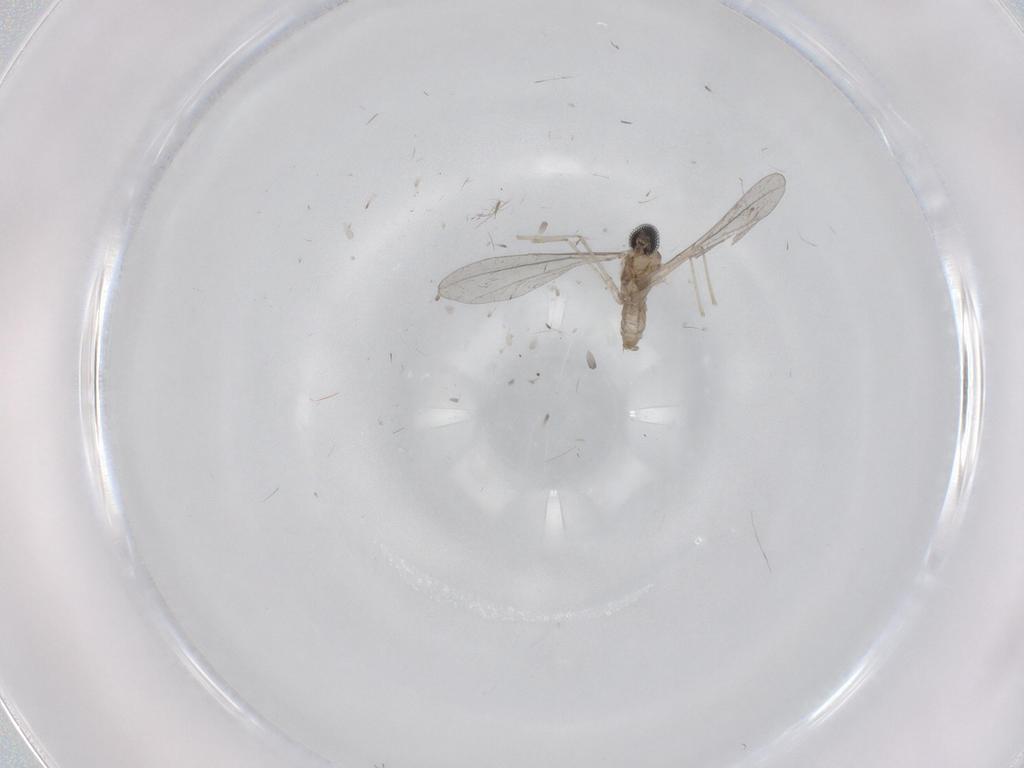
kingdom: Animalia
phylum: Arthropoda
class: Insecta
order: Diptera
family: Cecidomyiidae
